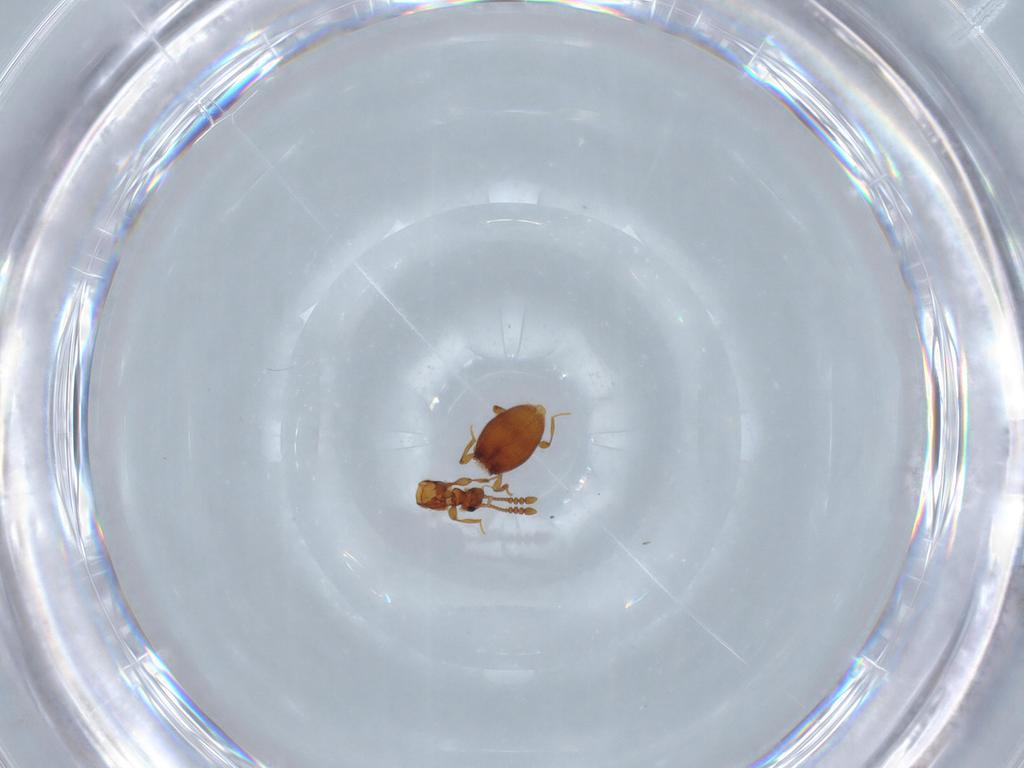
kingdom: Animalia
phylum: Arthropoda
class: Insecta
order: Coleoptera
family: Staphylinidae
